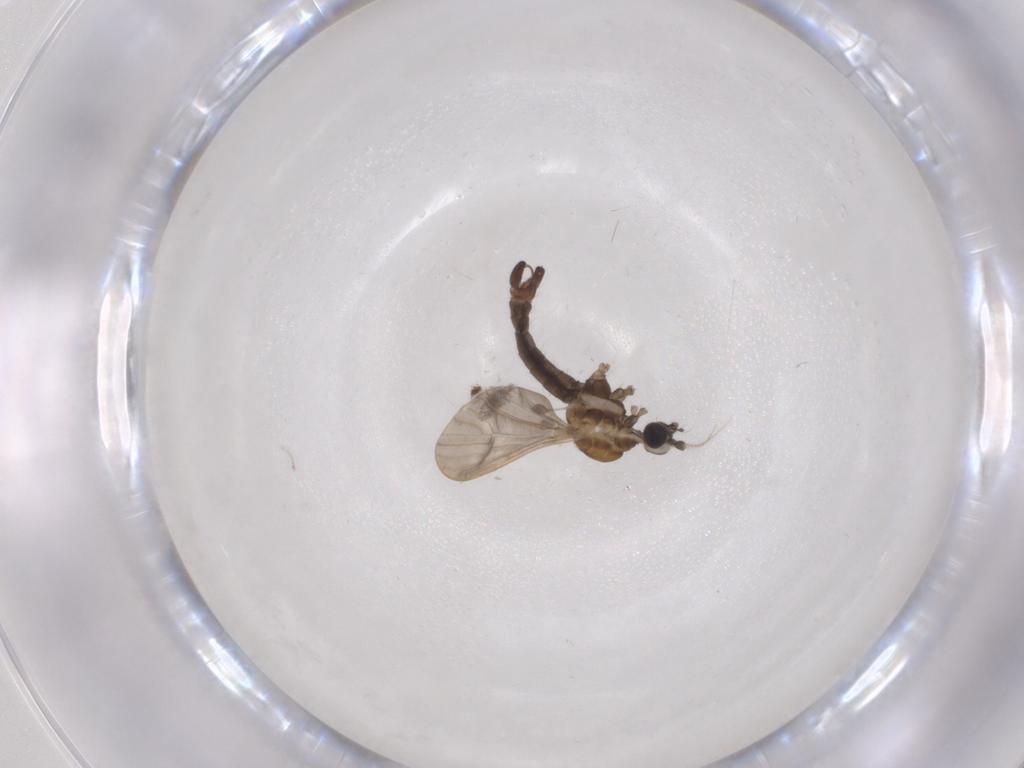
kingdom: Animalia
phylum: Arthropoda
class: Insecta
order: Diptera
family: Limoniidae
